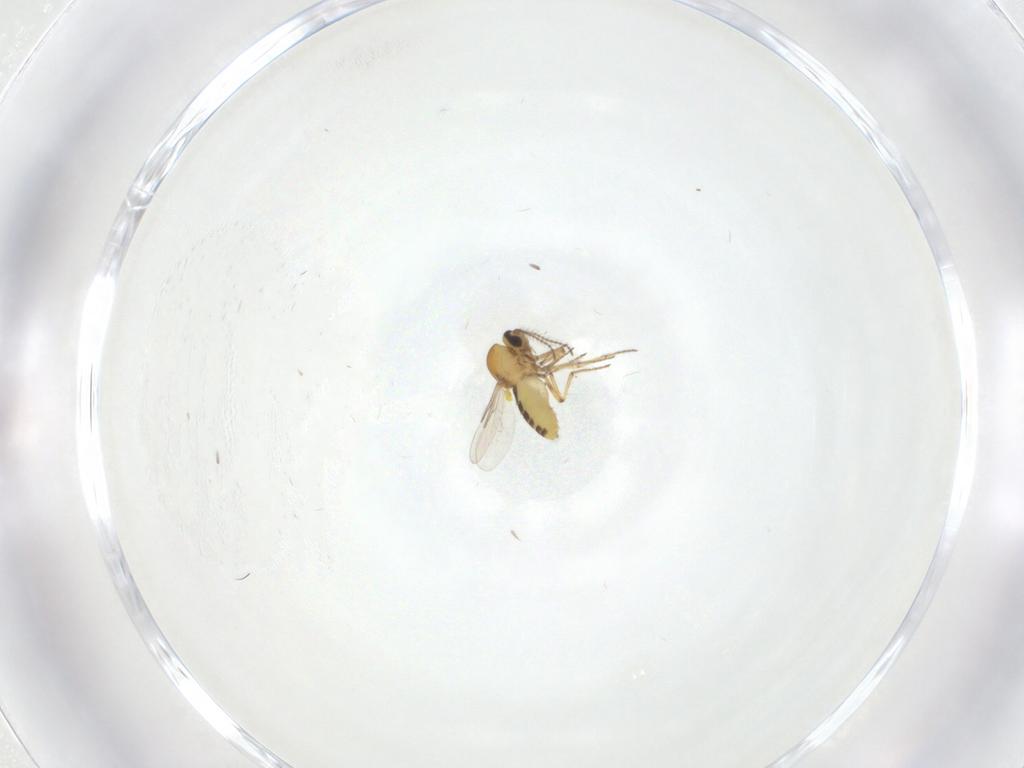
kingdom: Animalia
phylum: Arthropoda
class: Insecta
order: Diptera
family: Ceratopogonidae
